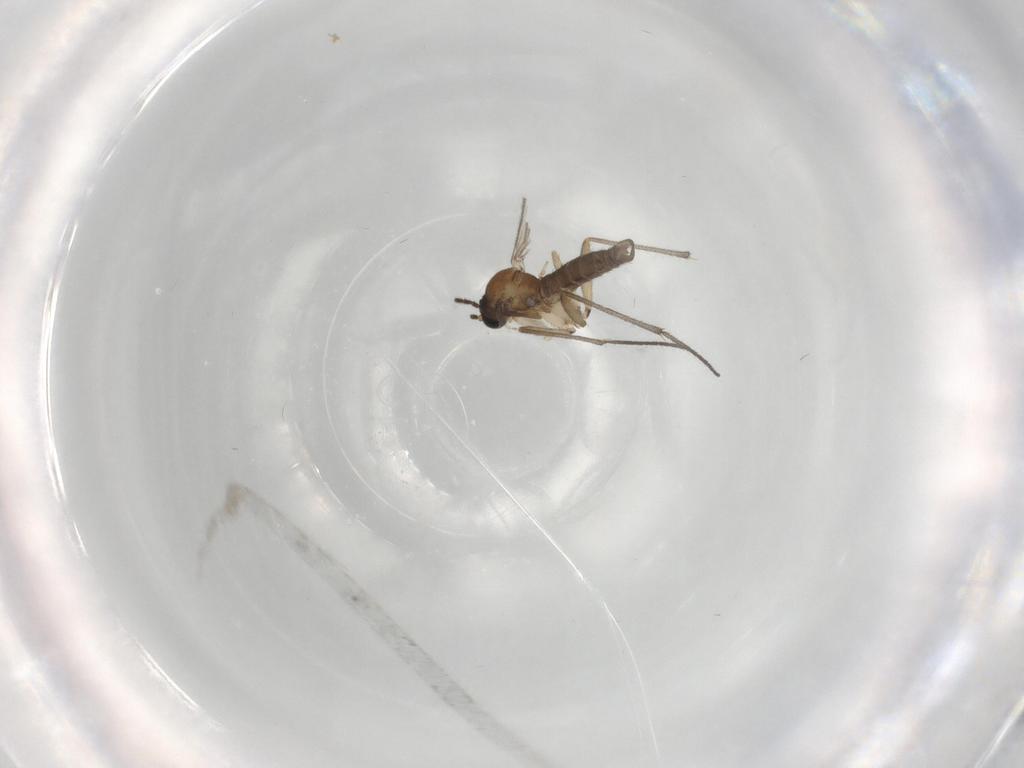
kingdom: Animalia
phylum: Arthropoda
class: Insecta
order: Diptera
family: Sciaridae
